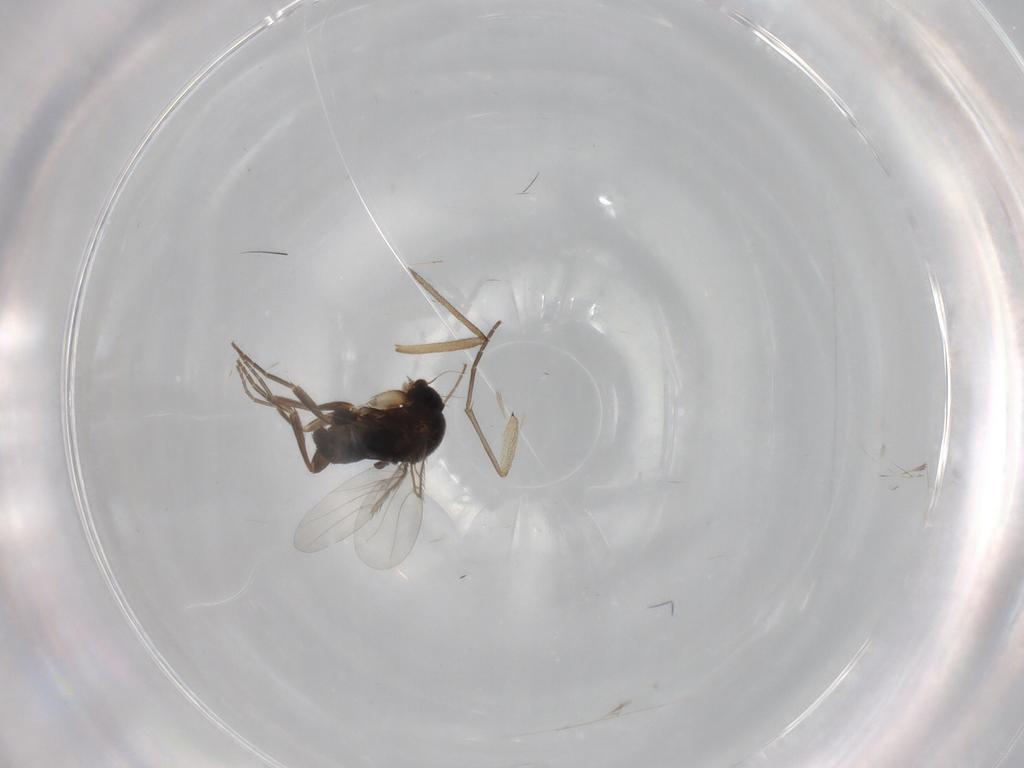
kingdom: Animalia
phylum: Arthropoda
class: Insecta
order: Diptera
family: Phoridae
